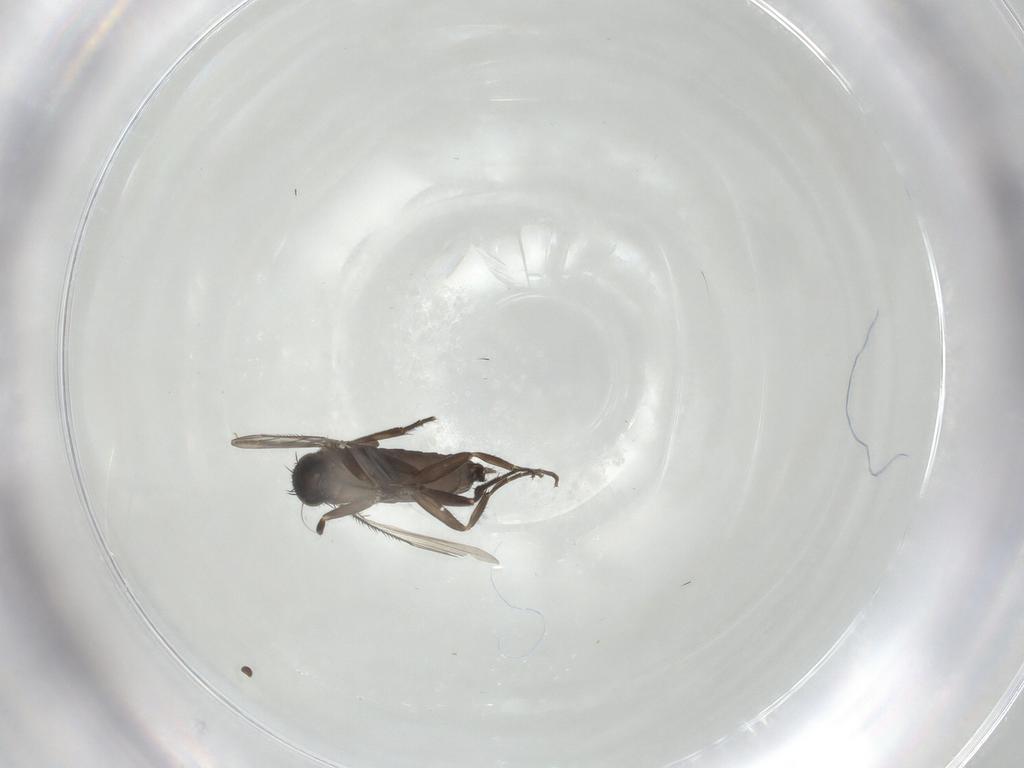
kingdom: Animalia
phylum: Arthropoda
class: Insecta
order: Diptera
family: Phoridae
